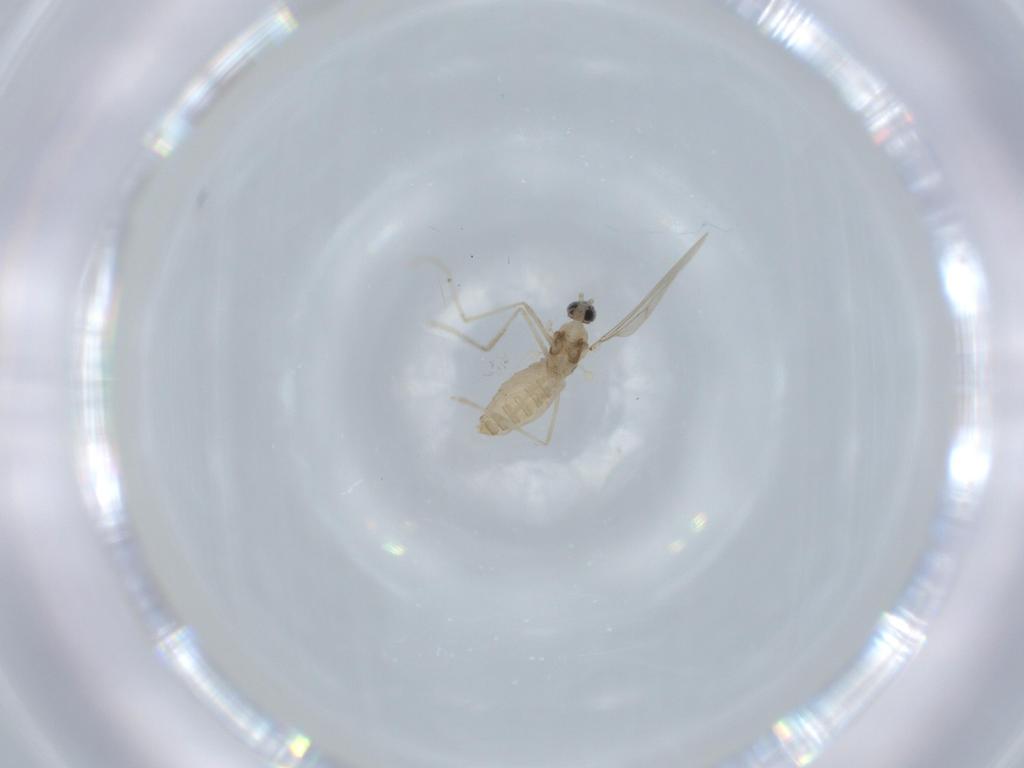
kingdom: Animalia
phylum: Arthropoda
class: Insecta
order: Diptera
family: Cecidomyiidae
